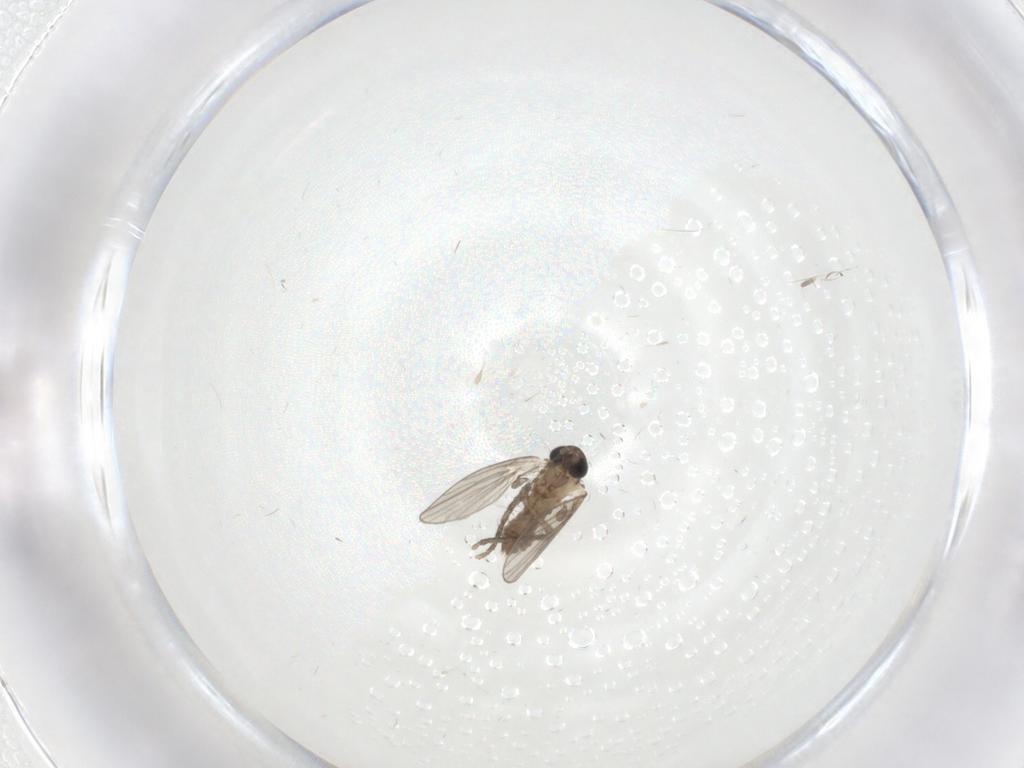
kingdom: Animalia
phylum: Arthropoda
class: Insecta
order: Diptera
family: Psychodidae
